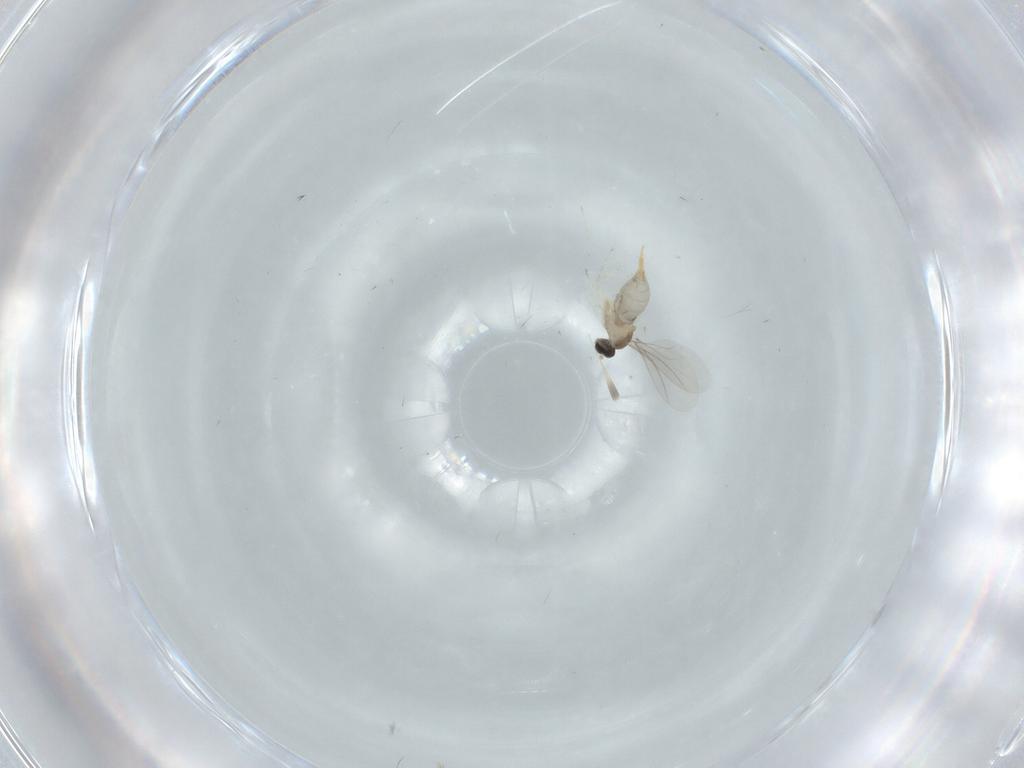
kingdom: Animalia
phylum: Arthropoda
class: Insecta
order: Diptera
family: Cecidomyiidae
